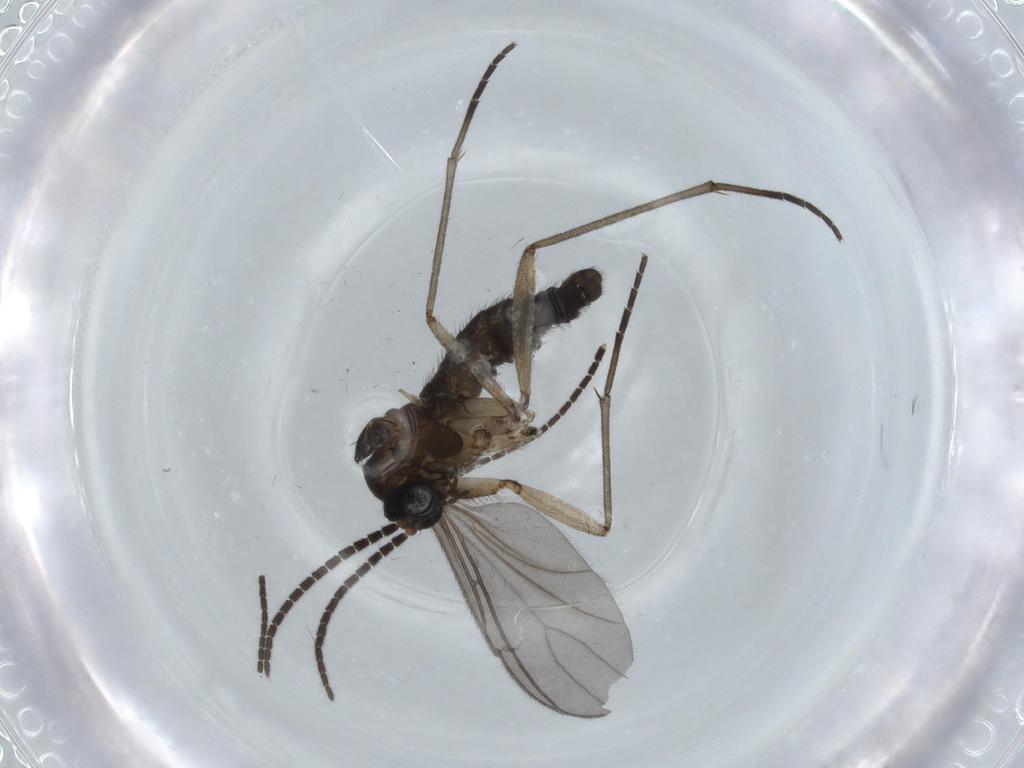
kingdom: Animalia
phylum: Arthropoda
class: Insecta
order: Diptera
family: Sciaridae
